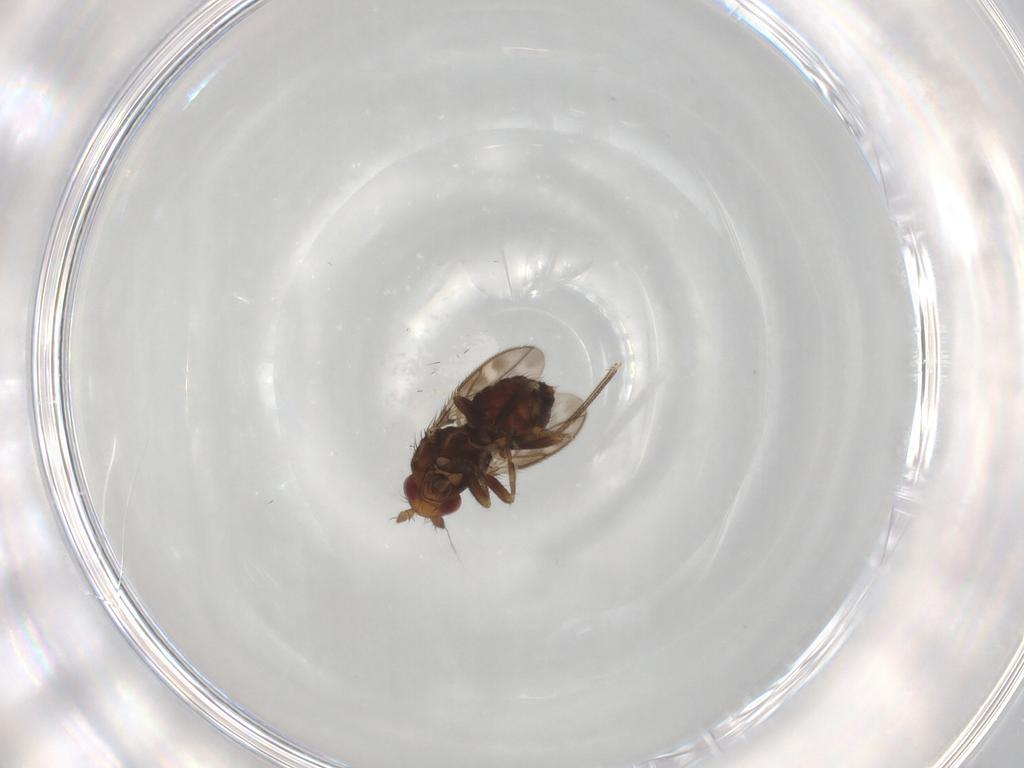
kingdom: Animalia
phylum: Arthropoda
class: Insecta
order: Diptera
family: Sphaeroceridae
